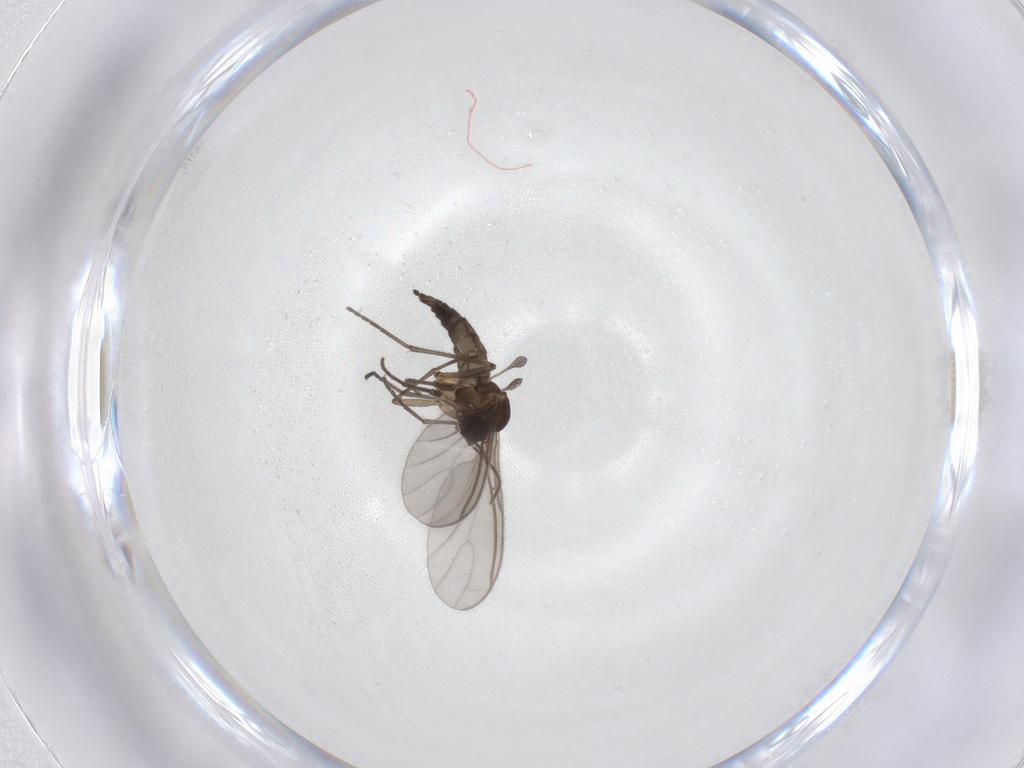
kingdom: Animalia
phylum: Arthropoda
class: Insecta
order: Diptera
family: Sciaridae
